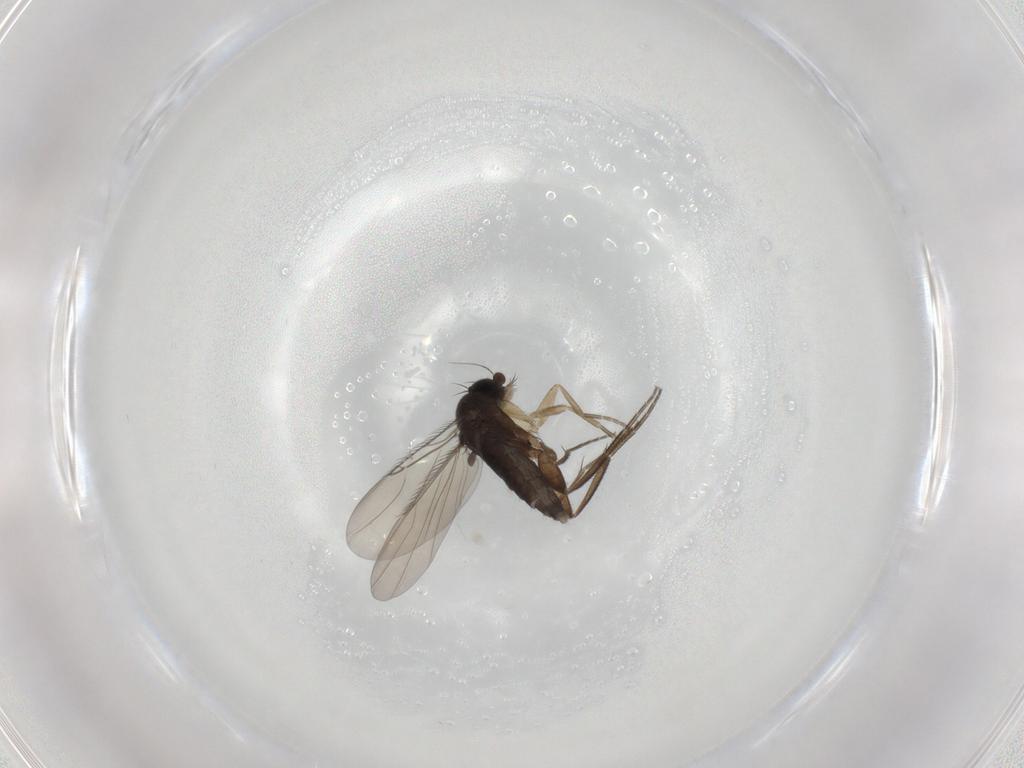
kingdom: Animalia
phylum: Arthropoda
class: Insecta
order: Diptera
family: Phoridae
